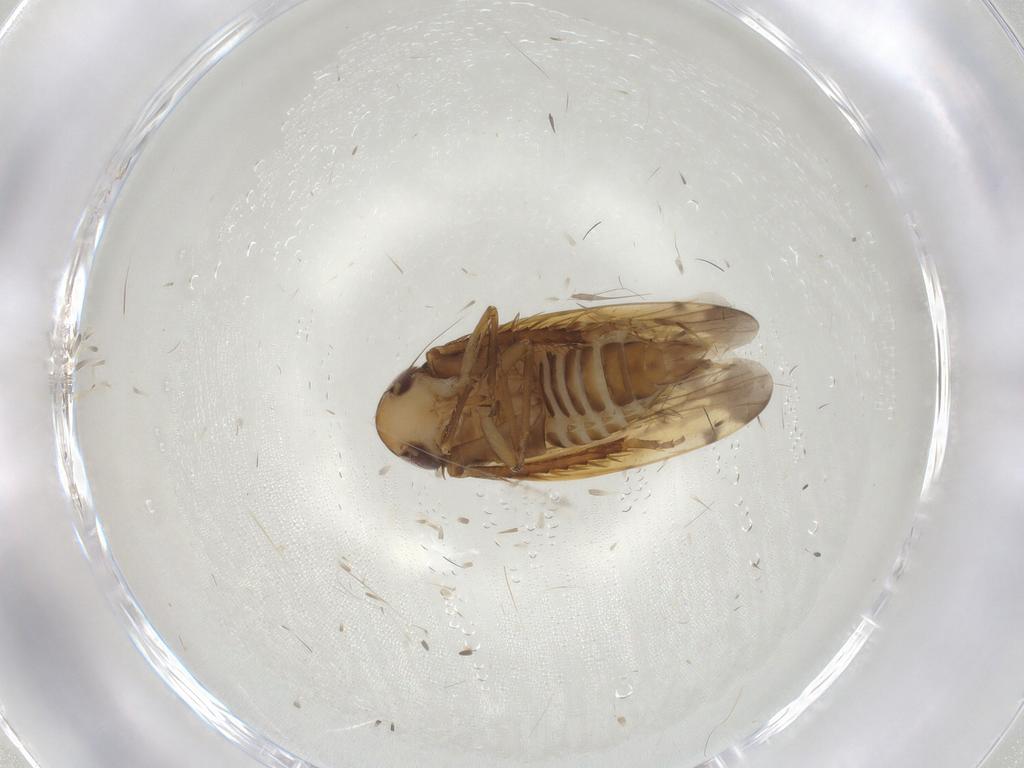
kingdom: Animalia
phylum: Arthropoda
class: Insecta
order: Hemiptera
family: Cicadellidae
